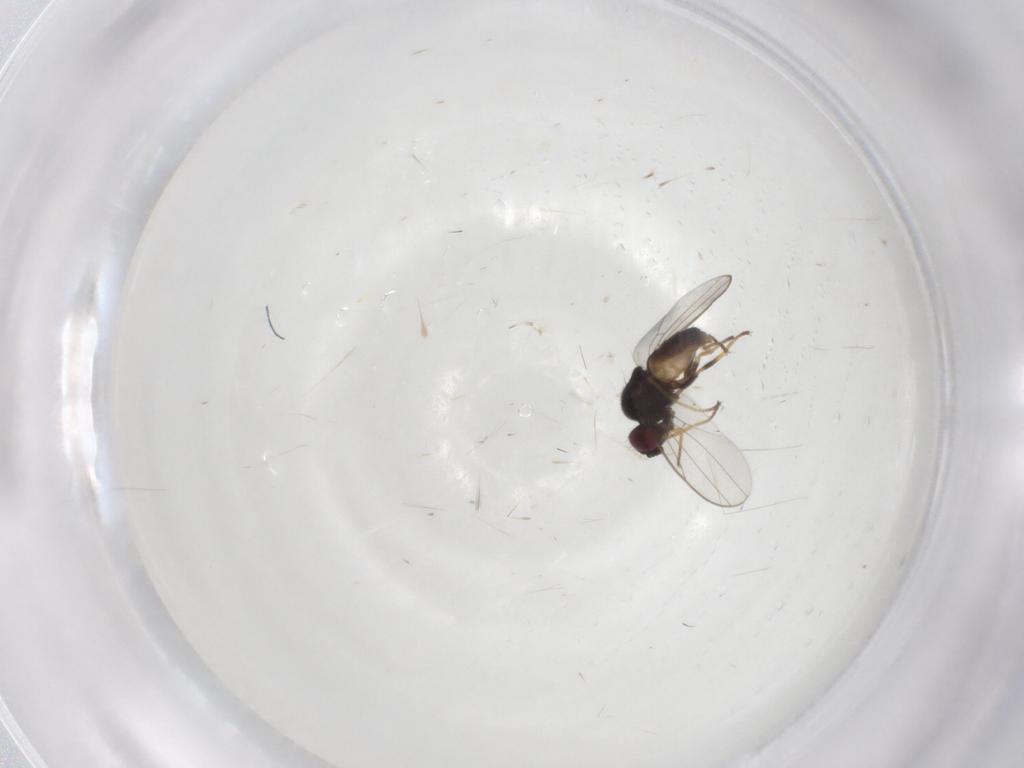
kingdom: Animalia
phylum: Arthropoda
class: Insecta
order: Diptera
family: Chloropidae
